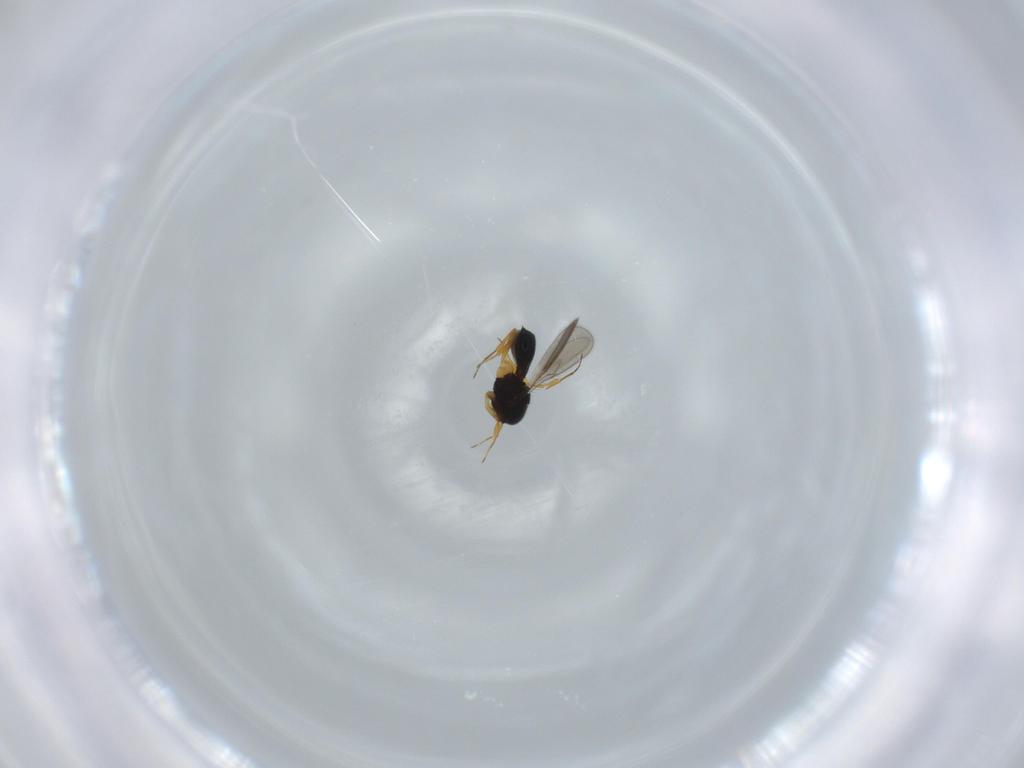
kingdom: Animalia
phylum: Arthropoda
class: Insecta
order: Hymenoptera
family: Scelionidae
